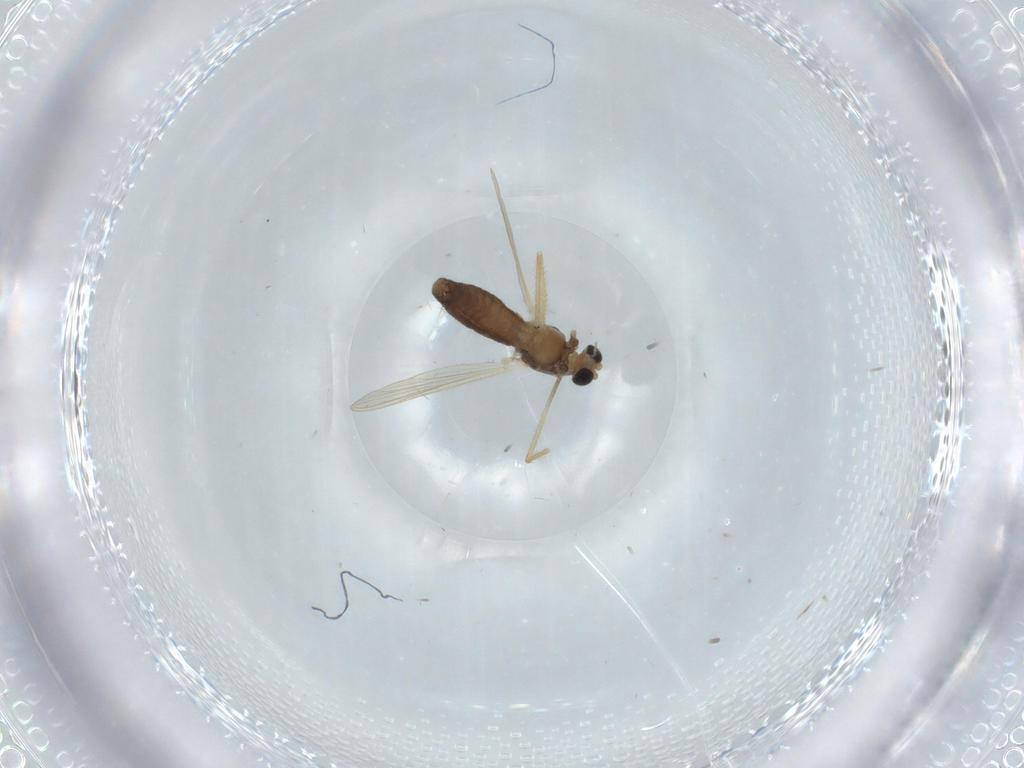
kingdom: Animalia
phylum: Arthropoda
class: Insecta
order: Diptera
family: Chironomidae
